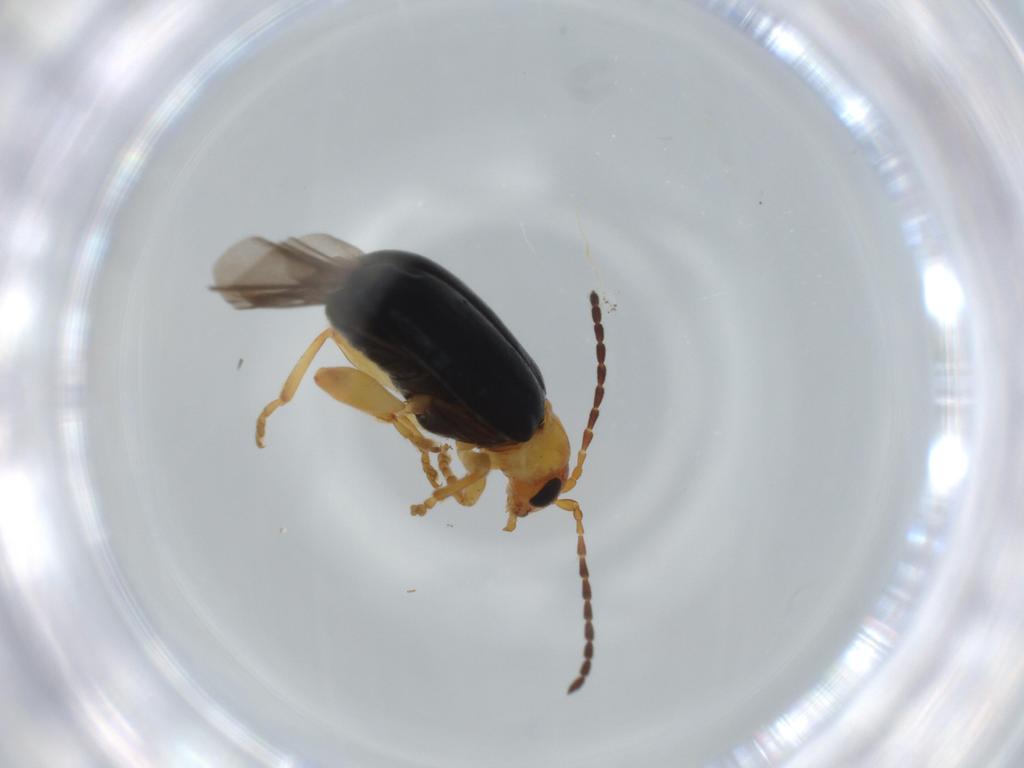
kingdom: Animalia
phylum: Arthropoda
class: Insecta
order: Coleoptera
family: Chrysomelidae
